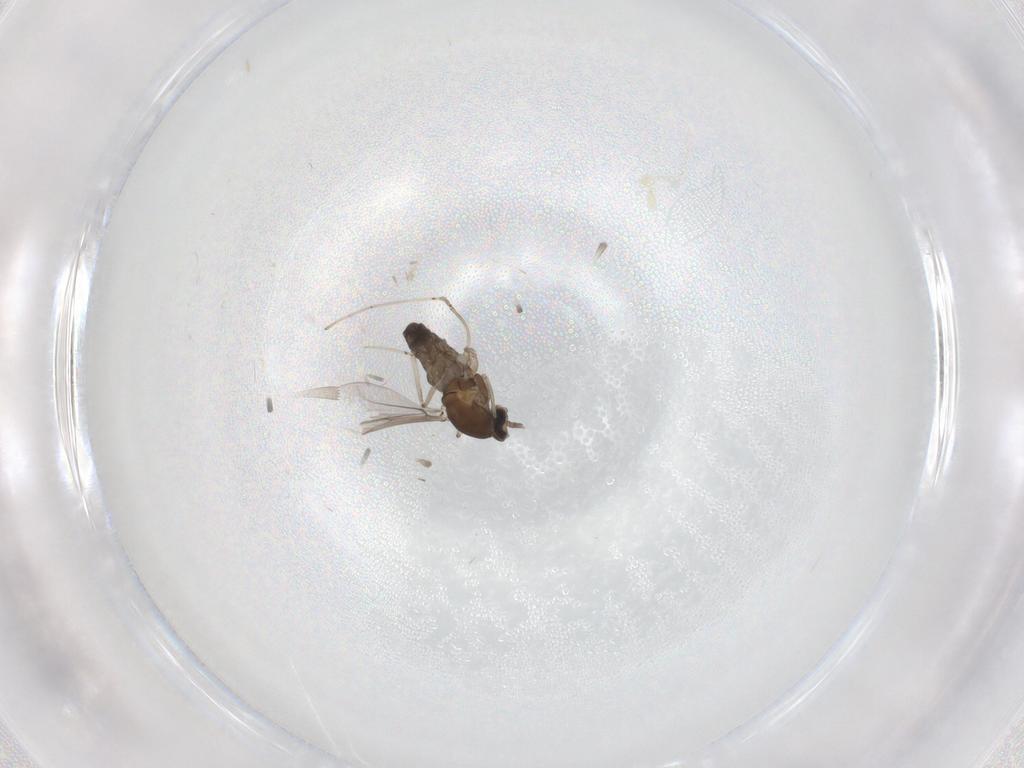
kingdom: Animalia
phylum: Arthropoda
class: Insecta
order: Diptera
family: Cecidomyiidae
